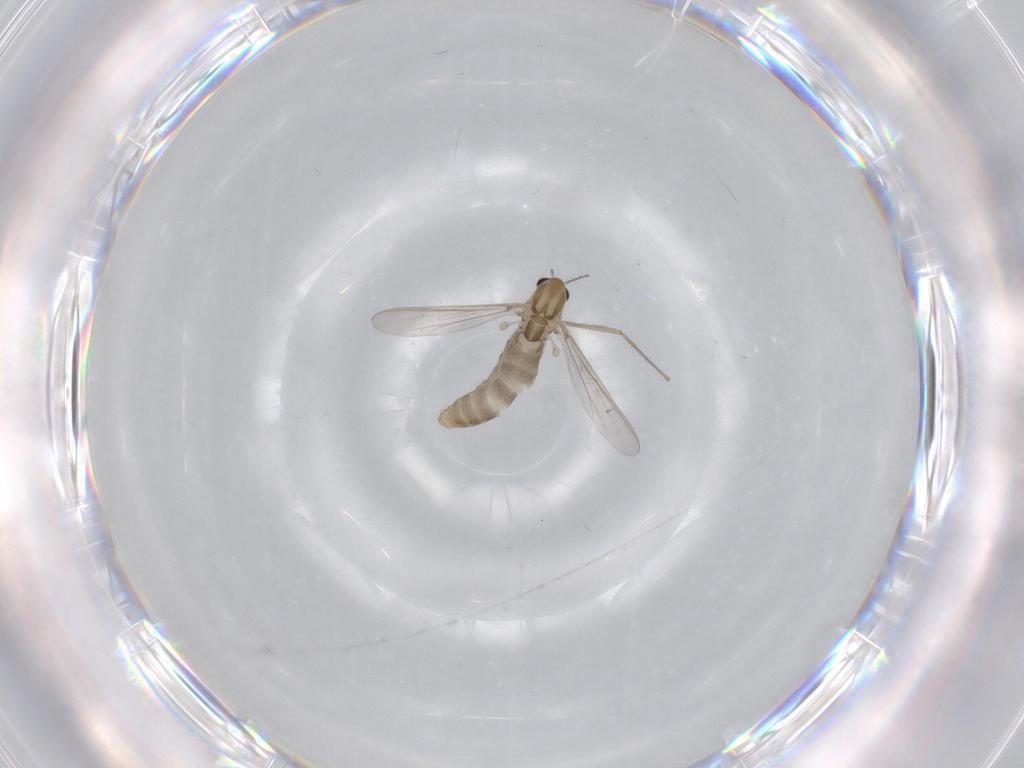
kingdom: Animalia
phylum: Arthropoda
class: Insecta
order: Diptera
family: Chironomidae
